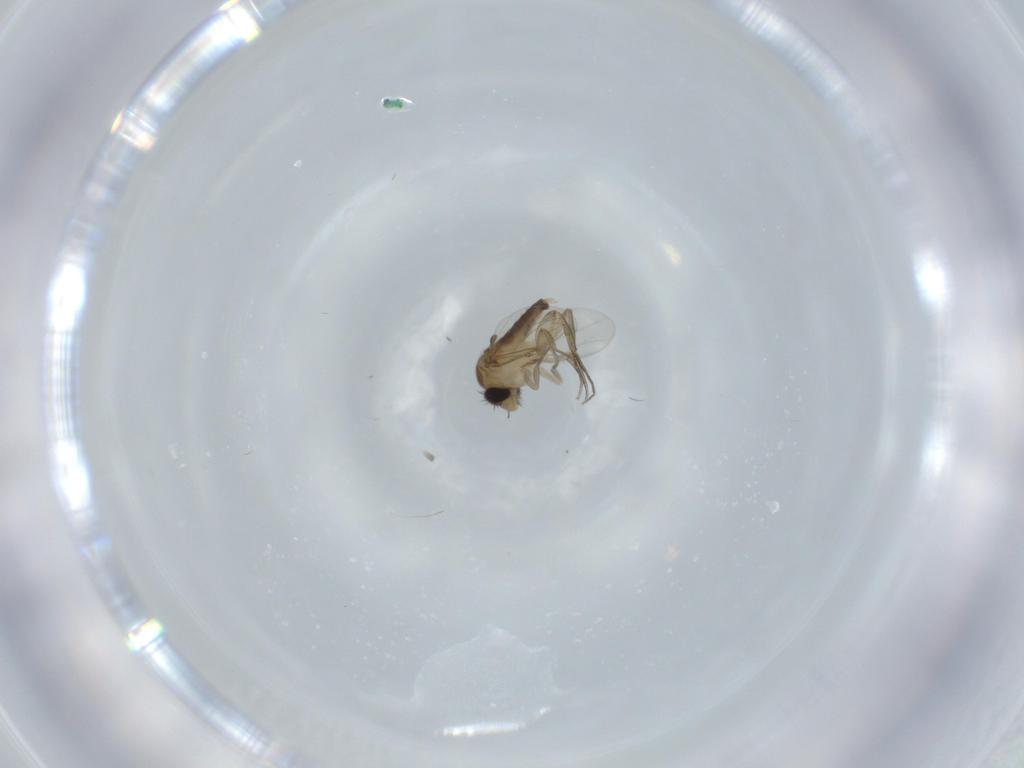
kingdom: Animalia
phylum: Arthropoda
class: Insecta
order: Diptera
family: Phoridae
